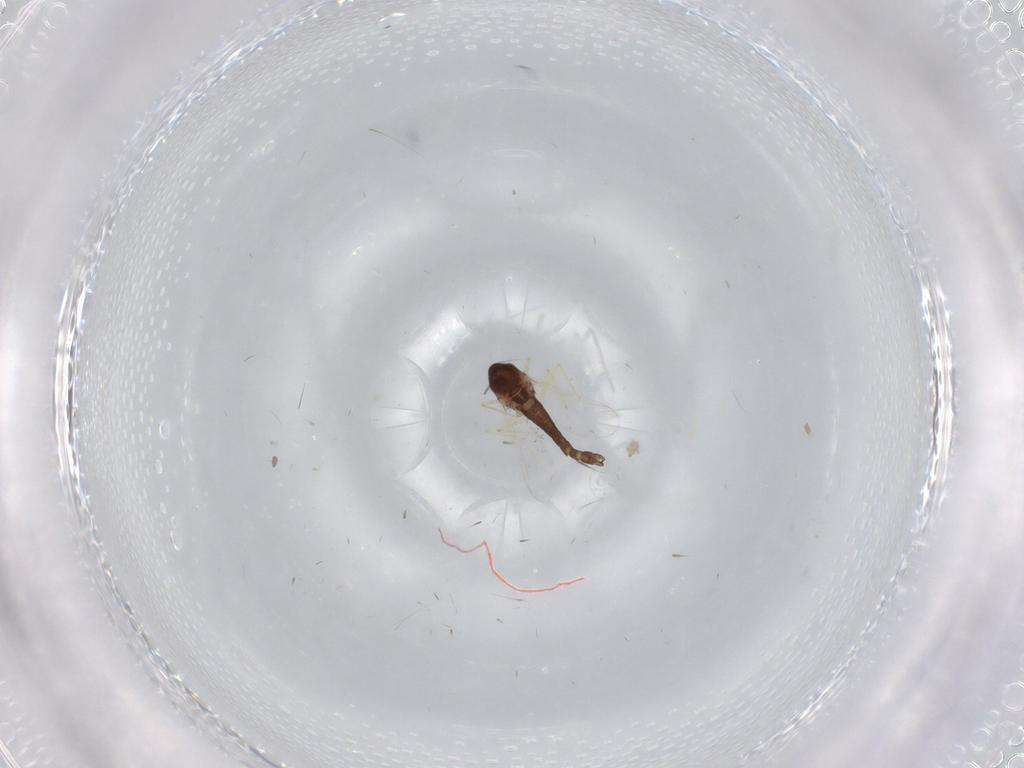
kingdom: Animalia
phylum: Arthropoda
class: Insecta
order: Diptera
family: Chironomidae
